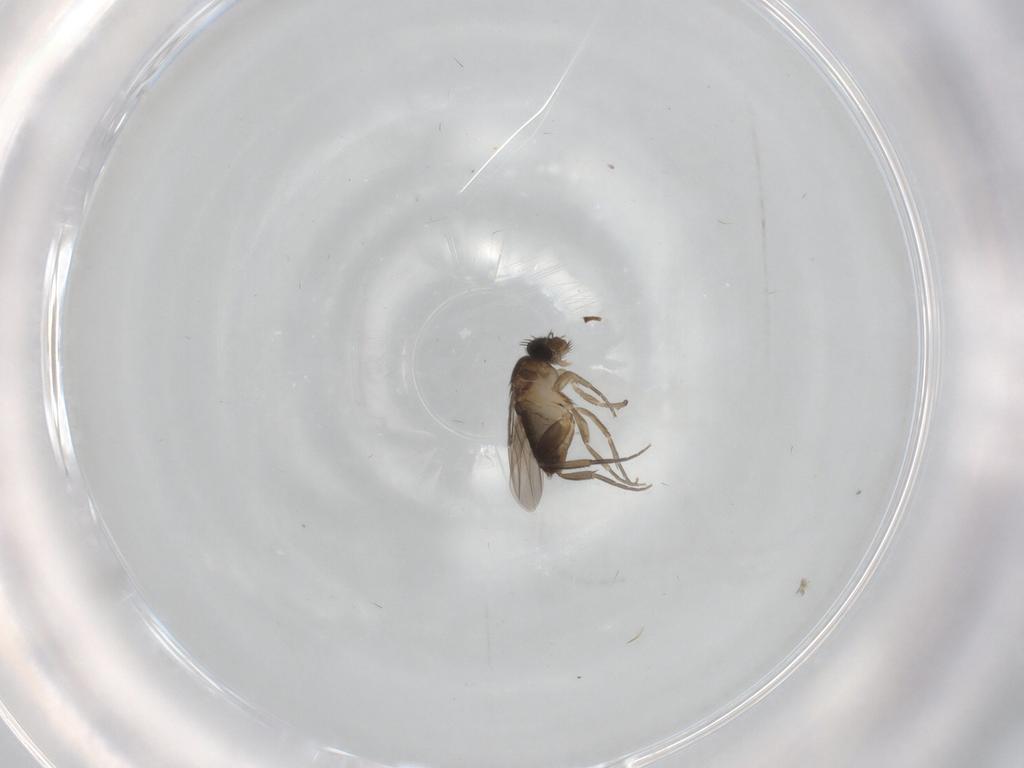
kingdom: Animalia
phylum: Arthropoda
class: Insecta
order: Diptera
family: Phoridae
